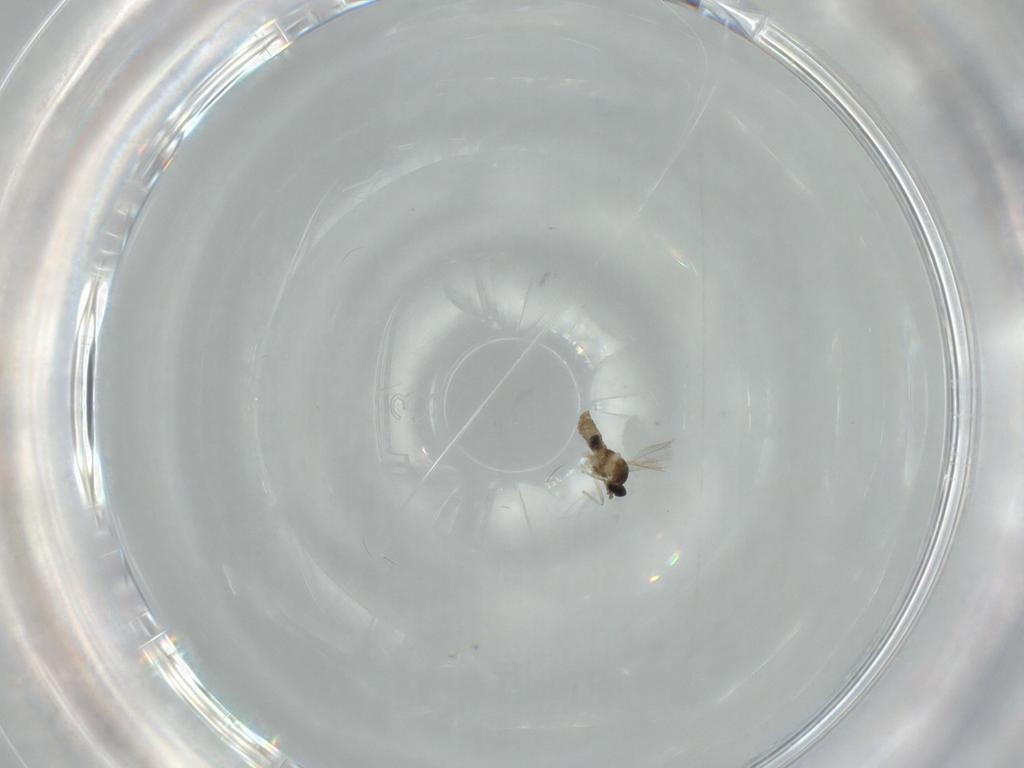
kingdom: Animalia
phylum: Arthropoda
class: Insecta
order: Diptera
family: Cecidomyiidae
